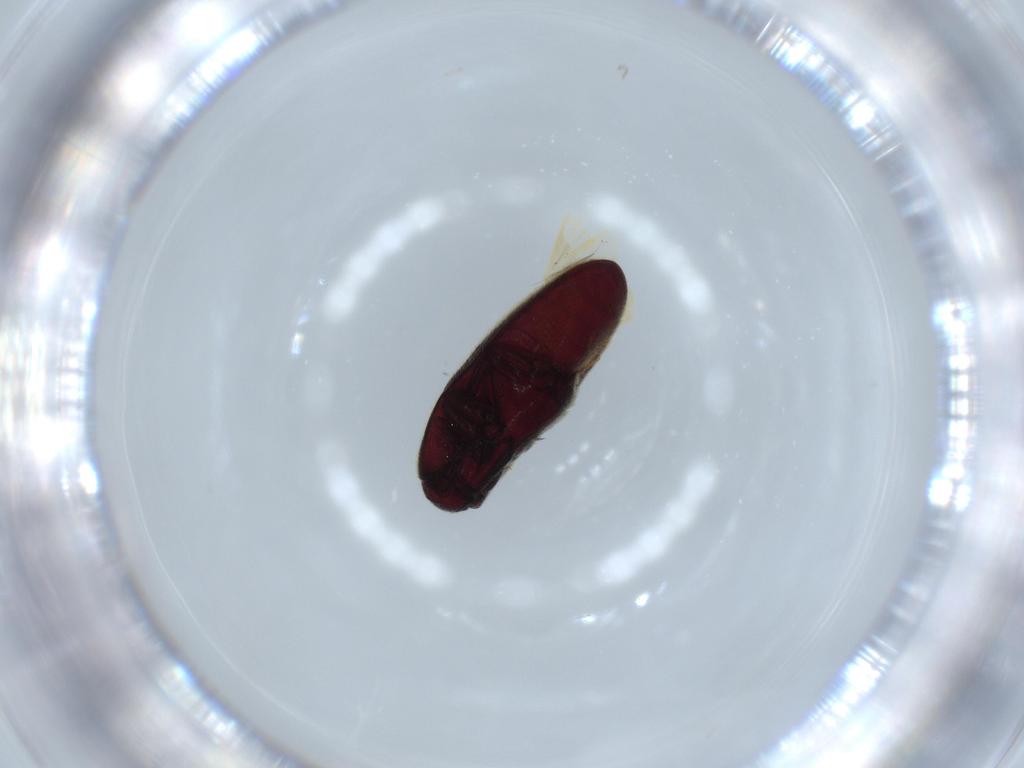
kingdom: Animalia
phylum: Arthropoda
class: Insecta
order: Coleoptera
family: Throscidae
